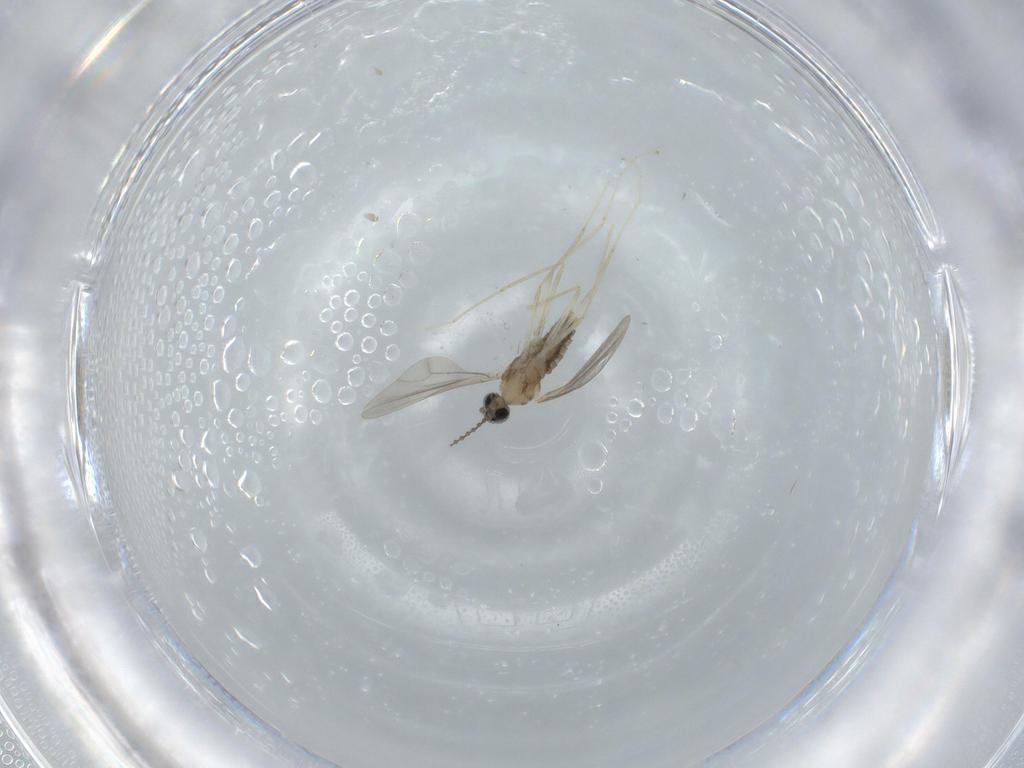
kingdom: Animalia
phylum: Arthropoda
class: Insecta
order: Diptera
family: Cecidomyiidae
